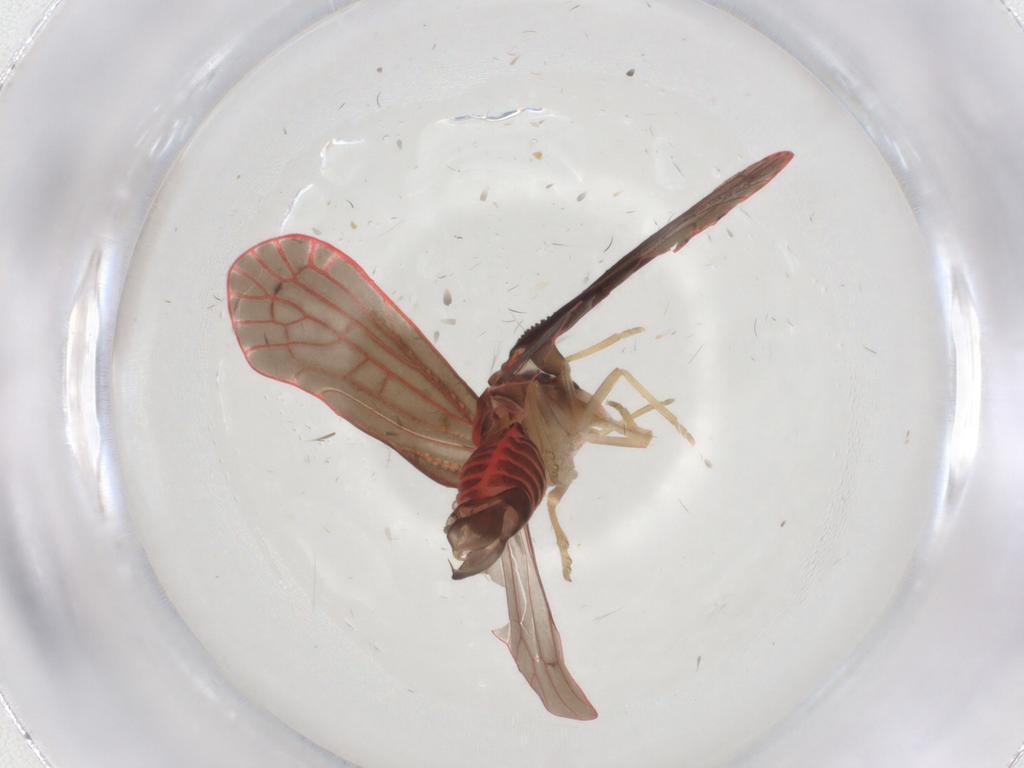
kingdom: Animalia
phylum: Arthropoda
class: Insecta
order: Hemiptera
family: Derbidae
